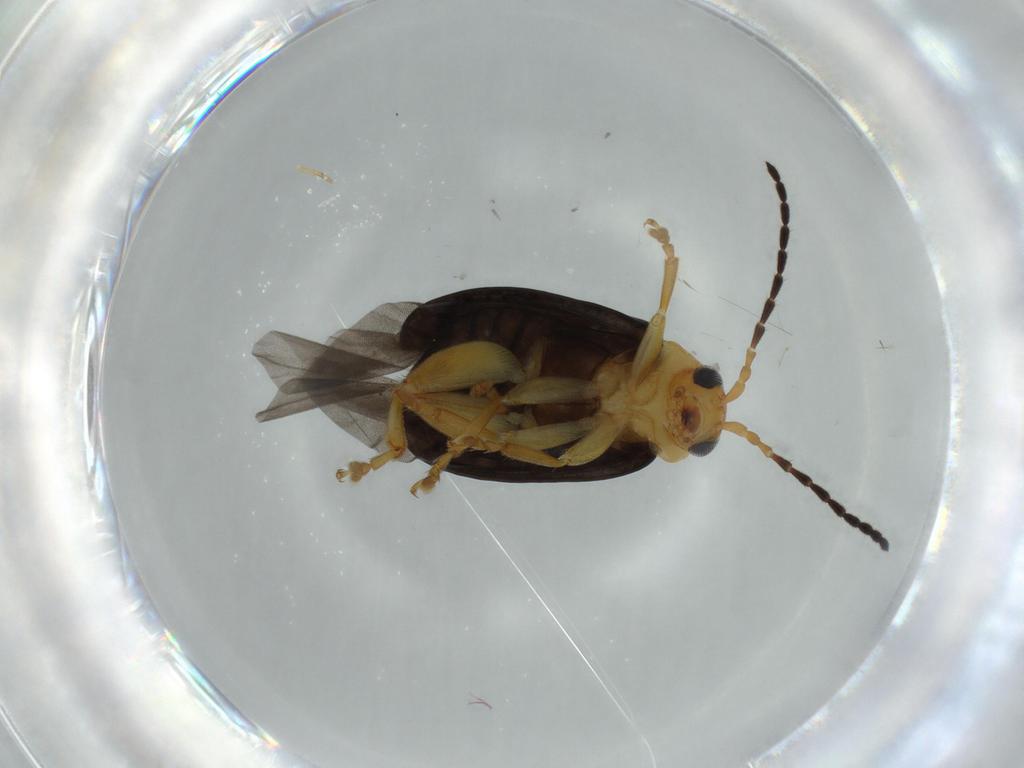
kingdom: Animalia
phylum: Arthropoda
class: Insecta
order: Coleoptera
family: Chrysomelidae
